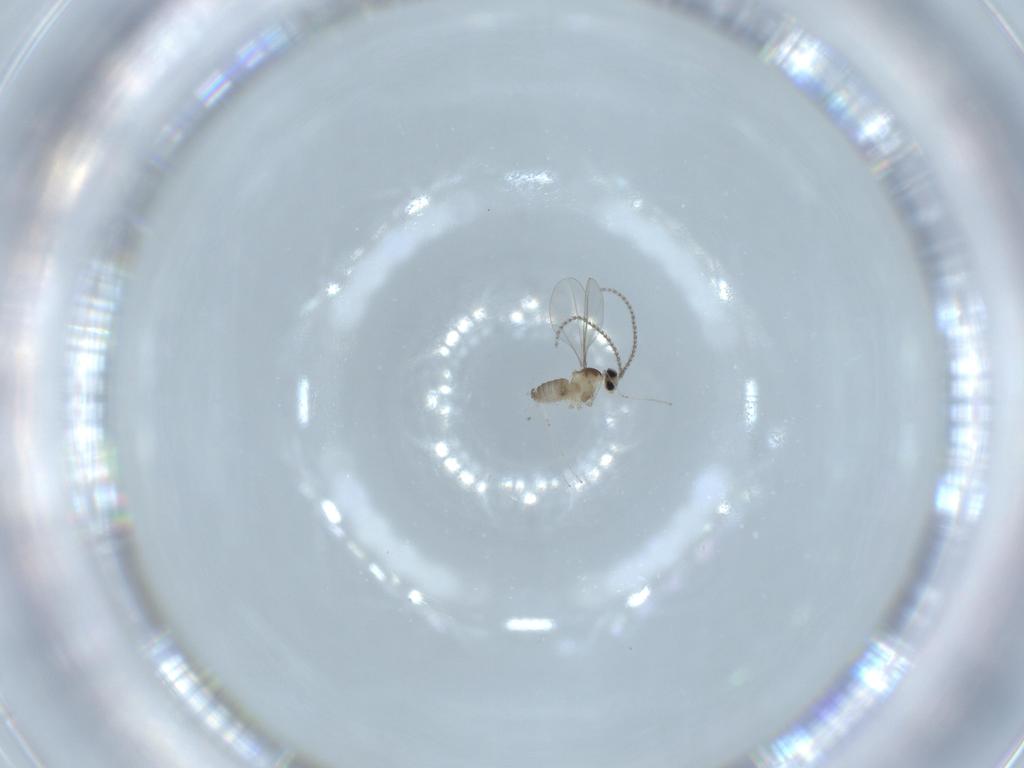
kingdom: Animalia
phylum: Arthropoda
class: Insecta
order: Diptera
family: Cecidomyiidae
